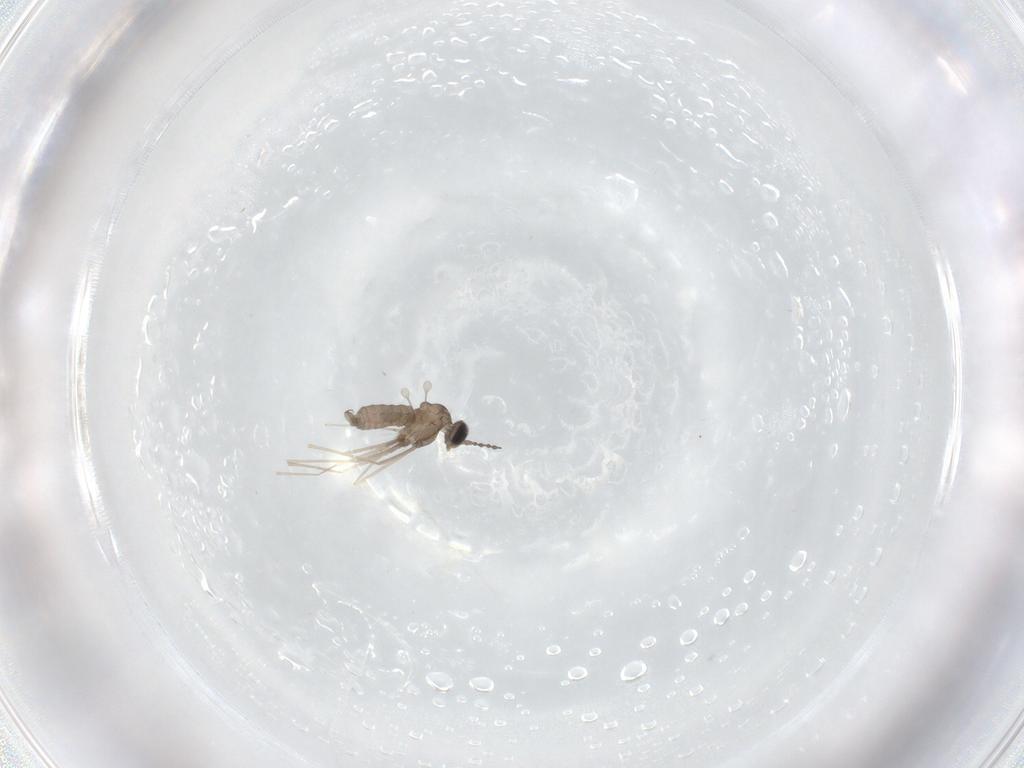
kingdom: Animalia
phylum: Arthropoda
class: Insecta
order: Diptera
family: Cecidomyiidae
